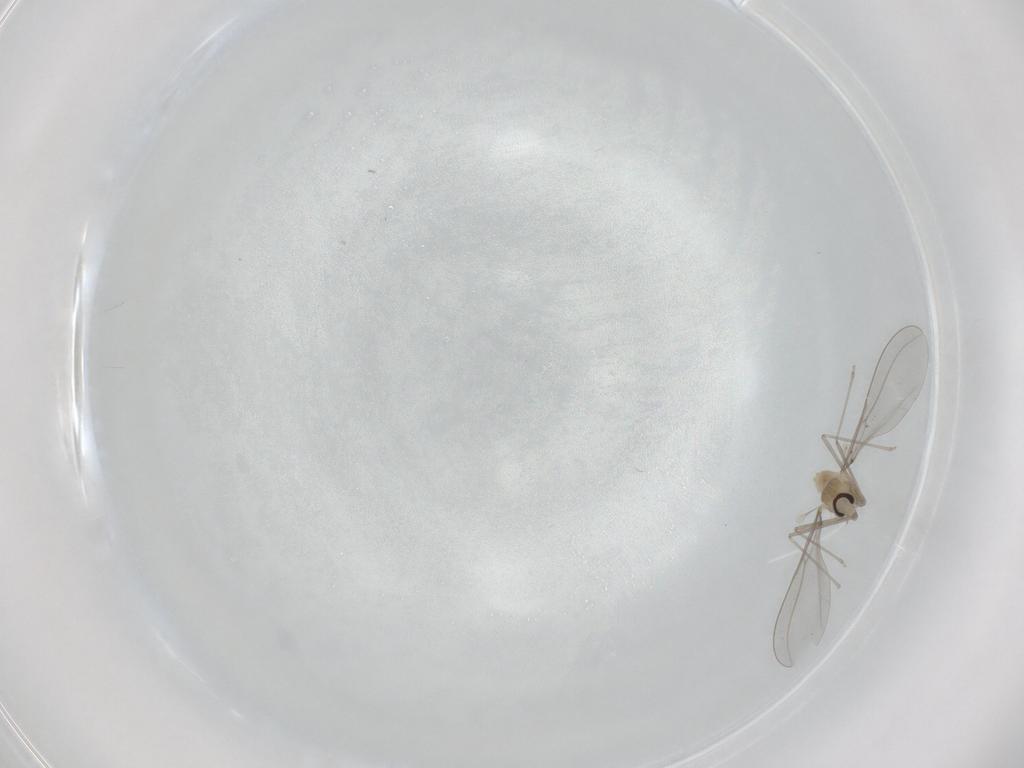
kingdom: Animalia
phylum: Arthropoda
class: Insecta
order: Diptera
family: Cecidomyiidae
